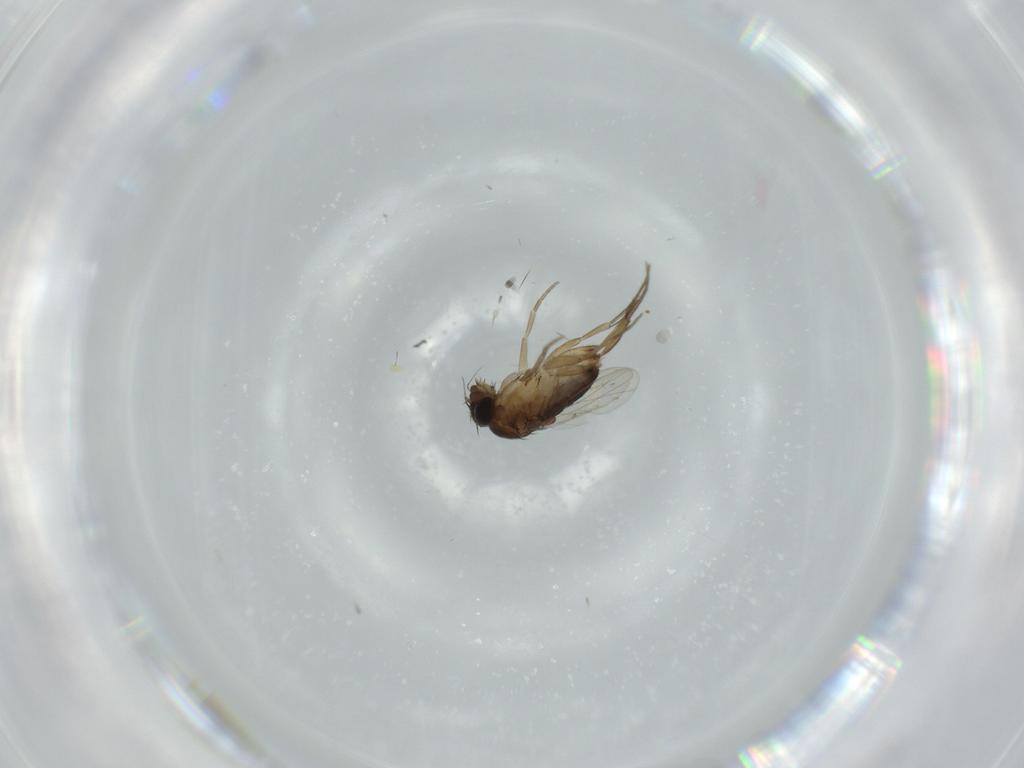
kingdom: Animalia
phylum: Arthropoda
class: Insecta
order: Diptera
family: Phoridae
